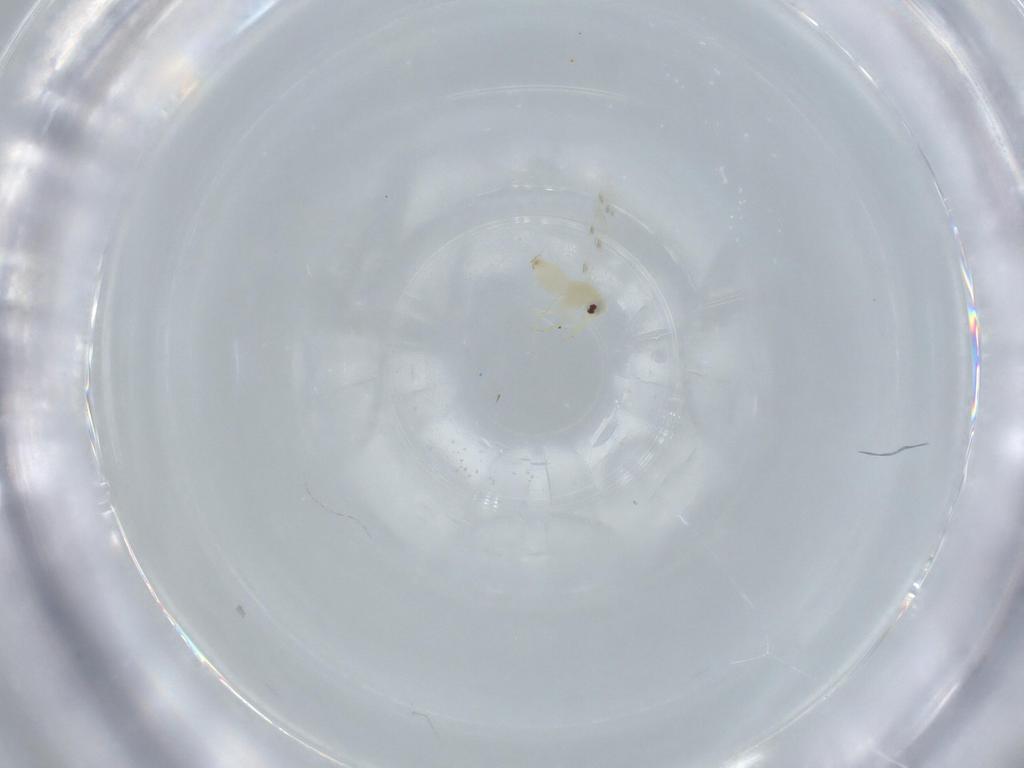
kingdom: Animalia
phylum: Arthropoda
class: Insecta
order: Hemiptera
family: Aleyrodidae
